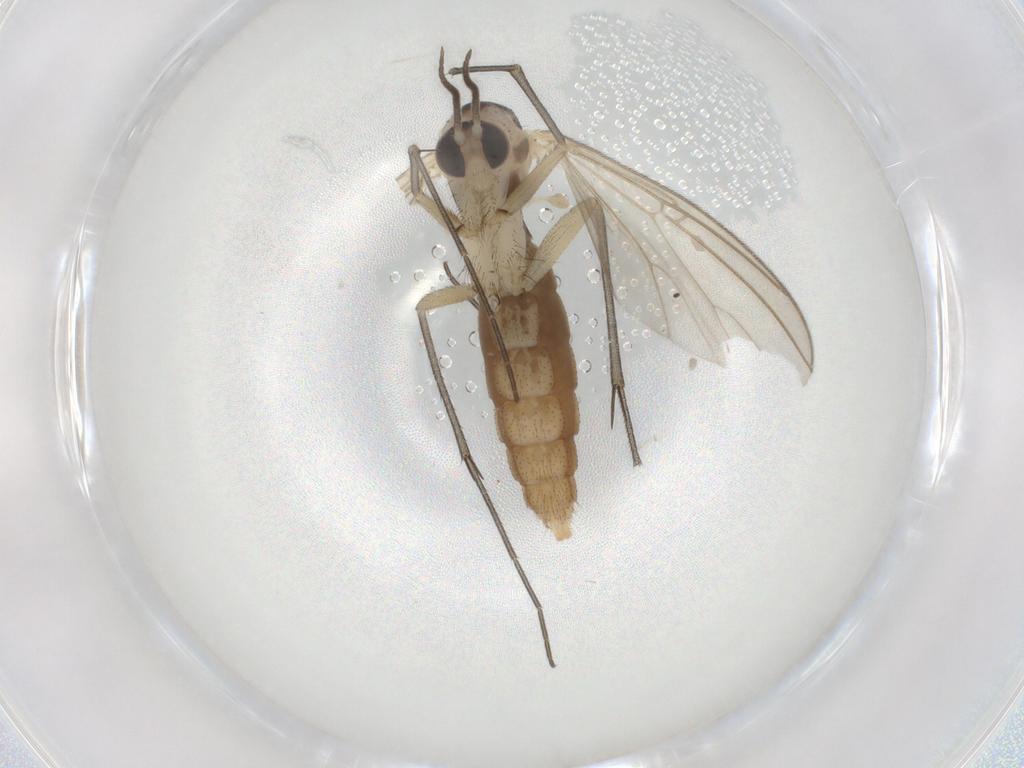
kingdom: Animalia
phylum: Arthropoda
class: Insecta
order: Diptera
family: Mycetophilidae
